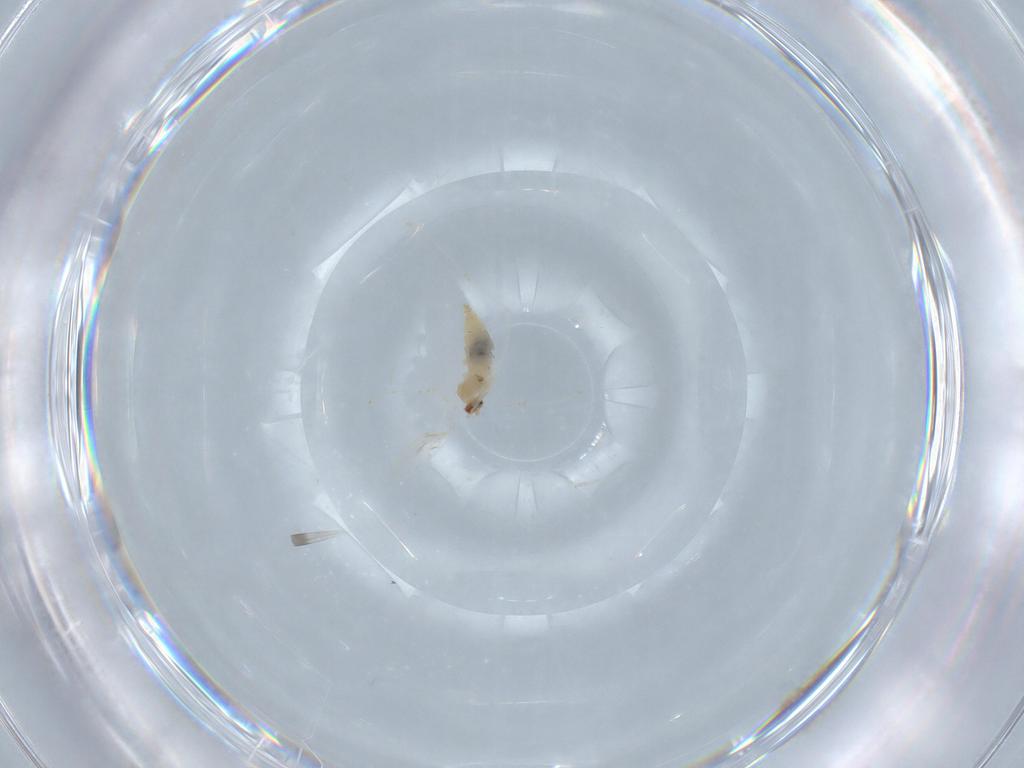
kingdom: Animalia
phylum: Arthropoda
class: Insecta
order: Diptera
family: Cecidomyiidae
